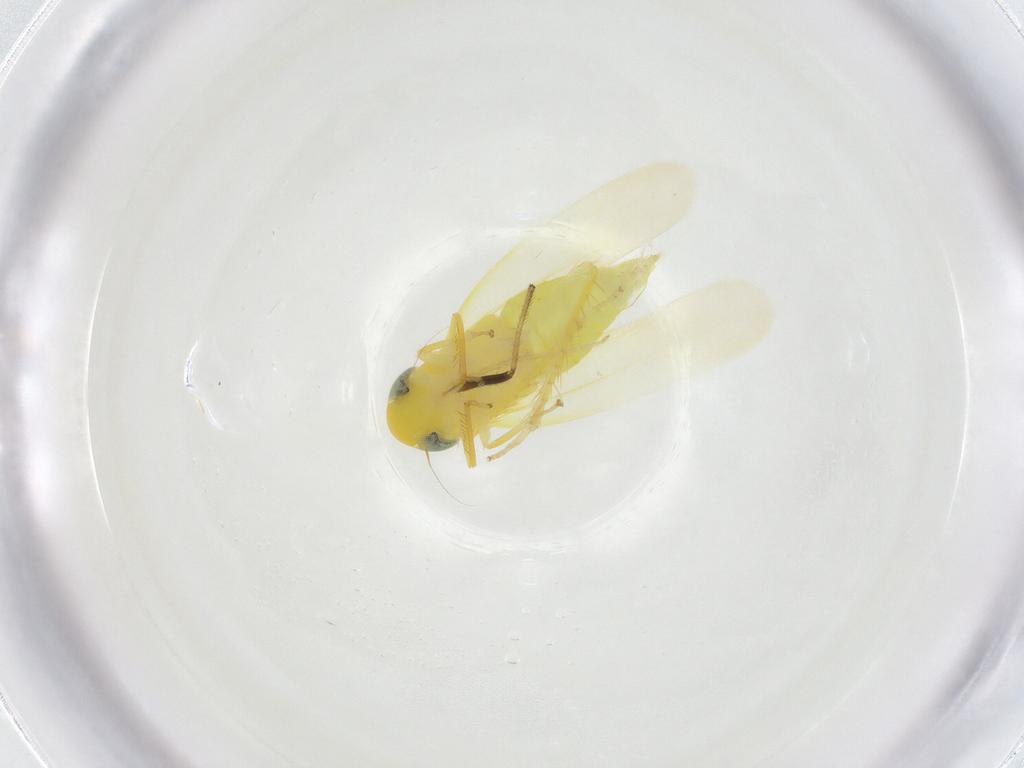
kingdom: Animalia
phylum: Arthropoda
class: Insecta
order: Hemiptera
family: Cicadellidae
